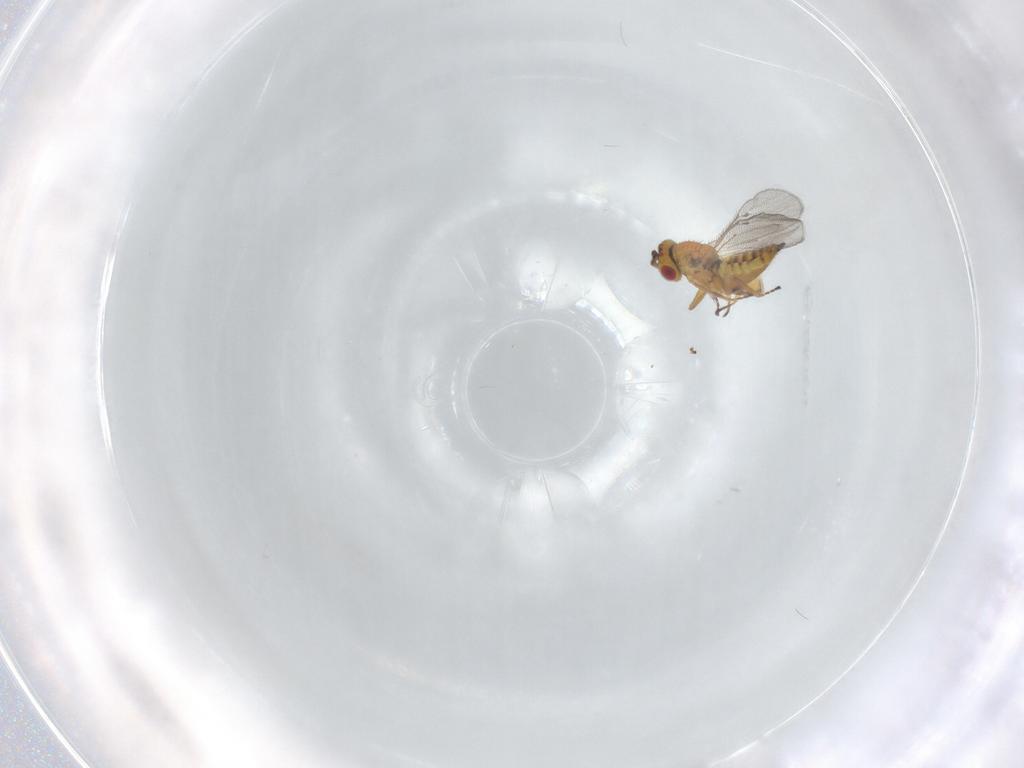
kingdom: Animalia
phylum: Arthropoda
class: Insecta
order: Hymenoptera
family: Eulophidae
